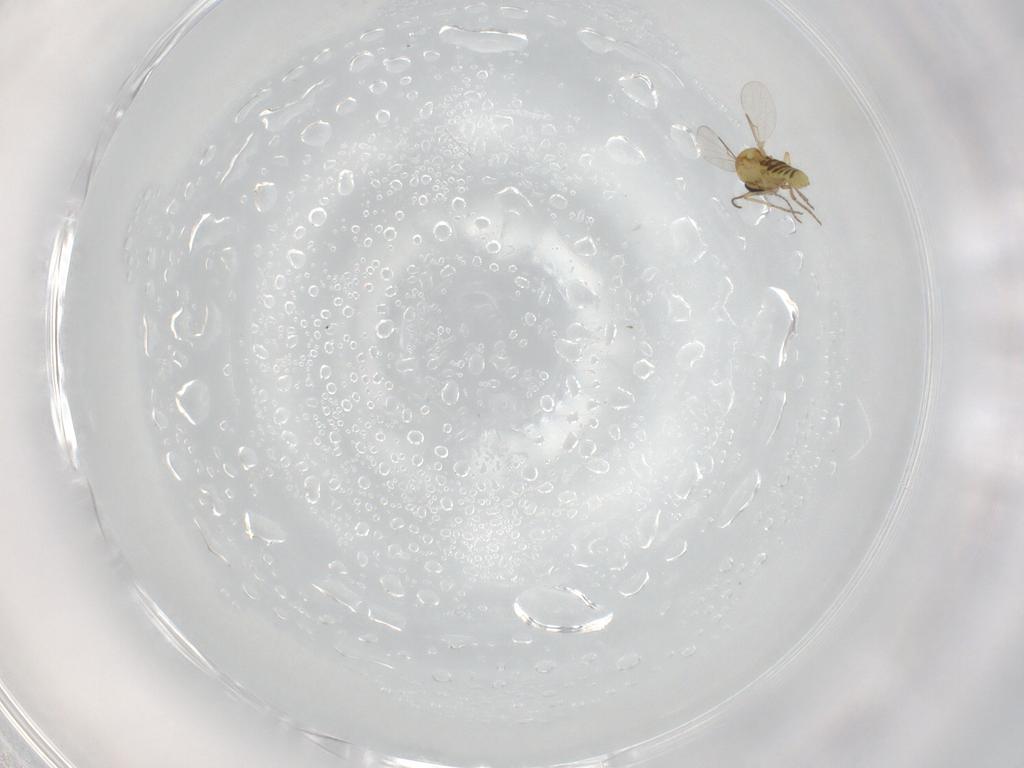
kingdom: Animalia
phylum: Arthropoda
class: Insecta
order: Diptera
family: Ceratopogonidae
